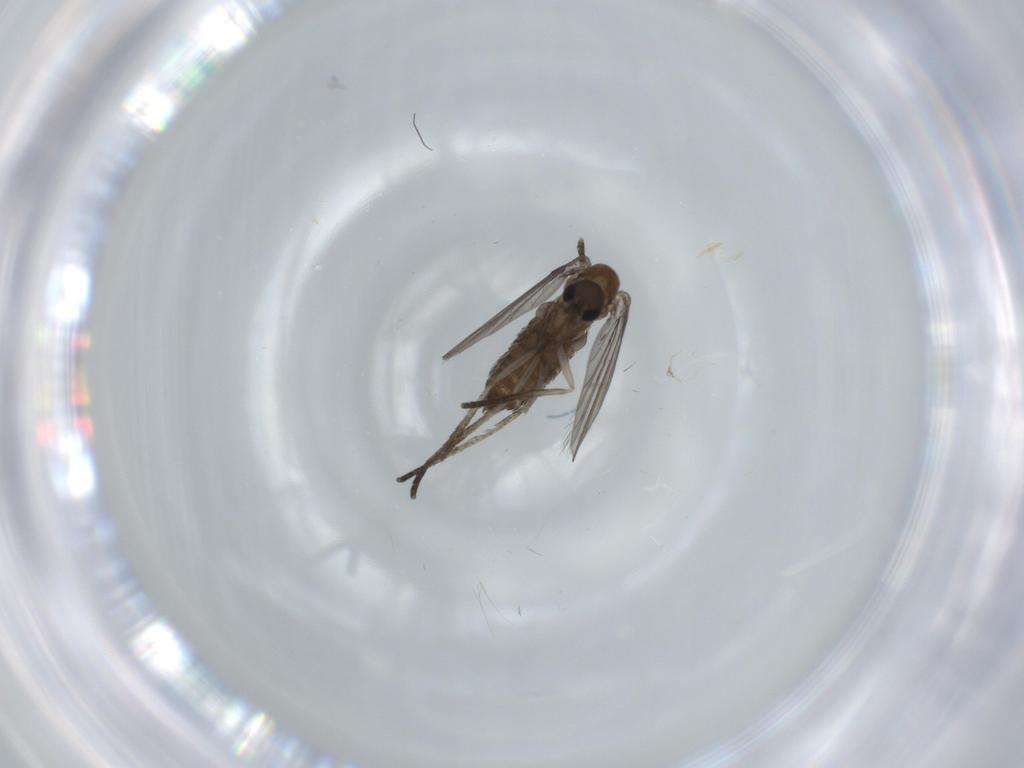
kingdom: Animalia
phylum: Arthropoda
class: Insecta
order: Diptera
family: Psychodidae
